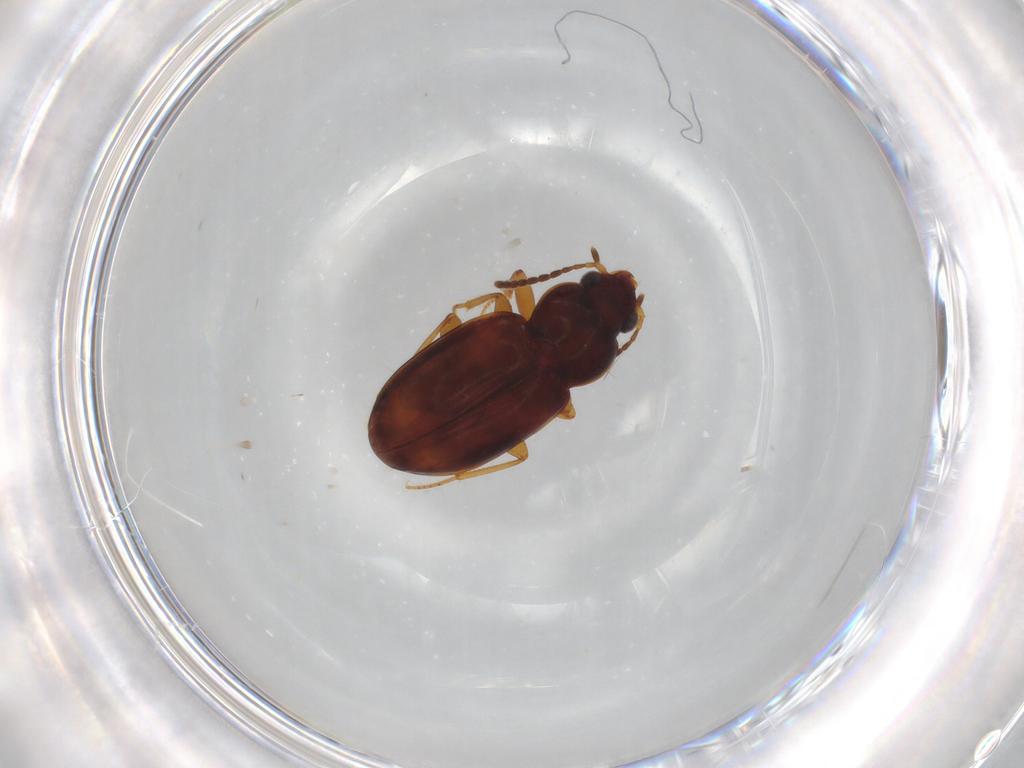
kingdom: Animalia
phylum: Arthropoda
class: Insecta
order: Coleoptera
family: Carabidae
